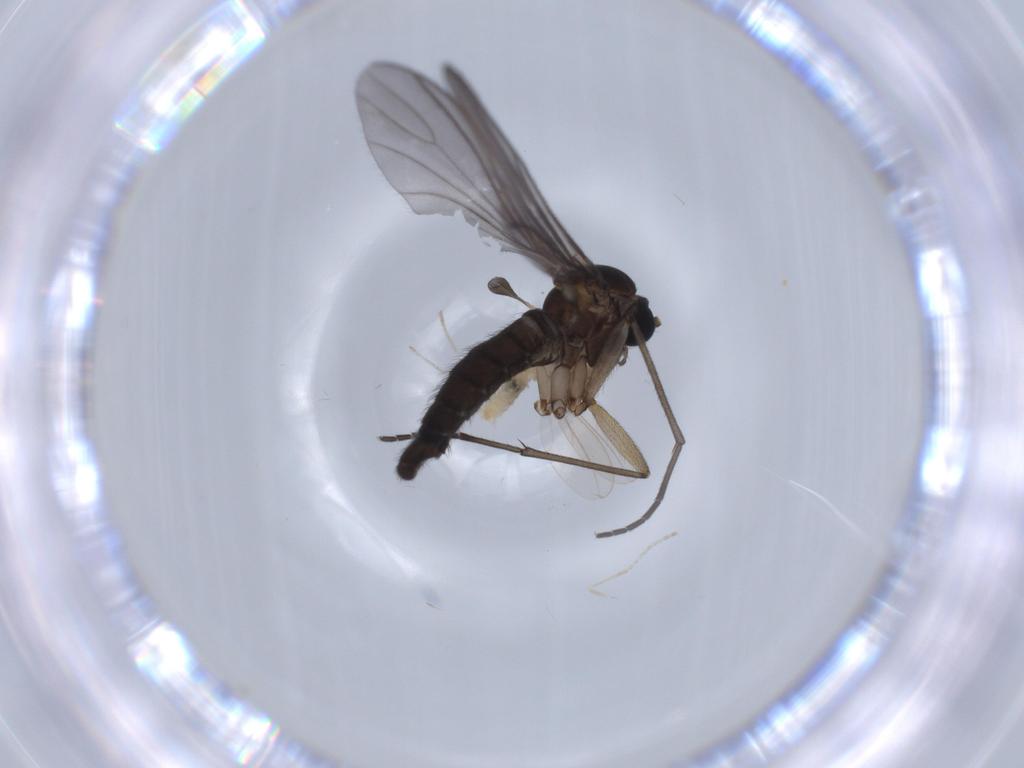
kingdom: Animalia
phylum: Arthropoda
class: Insecta
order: Diptera
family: Sciaridae
